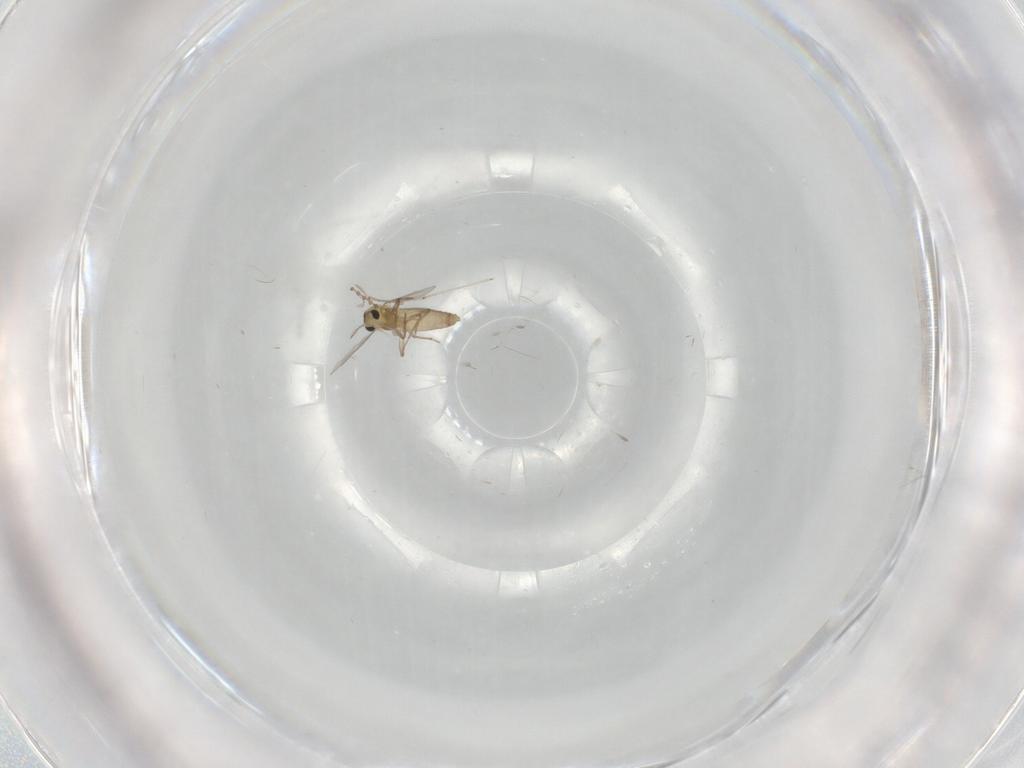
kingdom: Animalia
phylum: Arthropoda
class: Insecta
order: Diptera
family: Chironomidae
